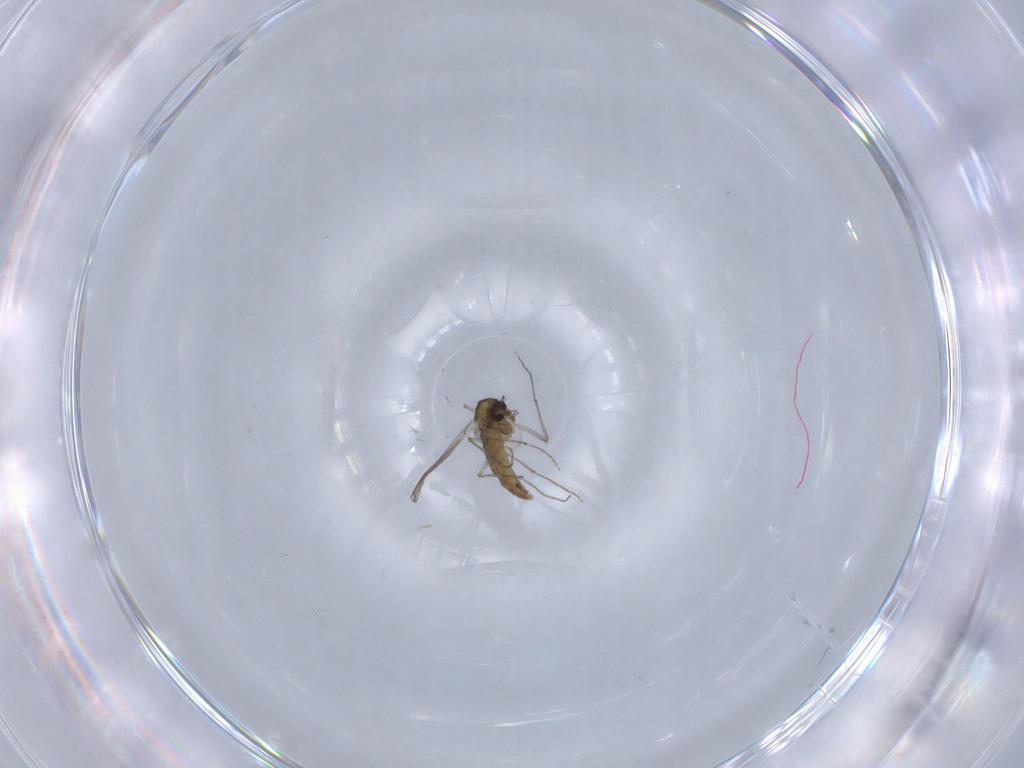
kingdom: Animalia
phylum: Arthropoda
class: Insecta
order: Diptera
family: Chironomidae
